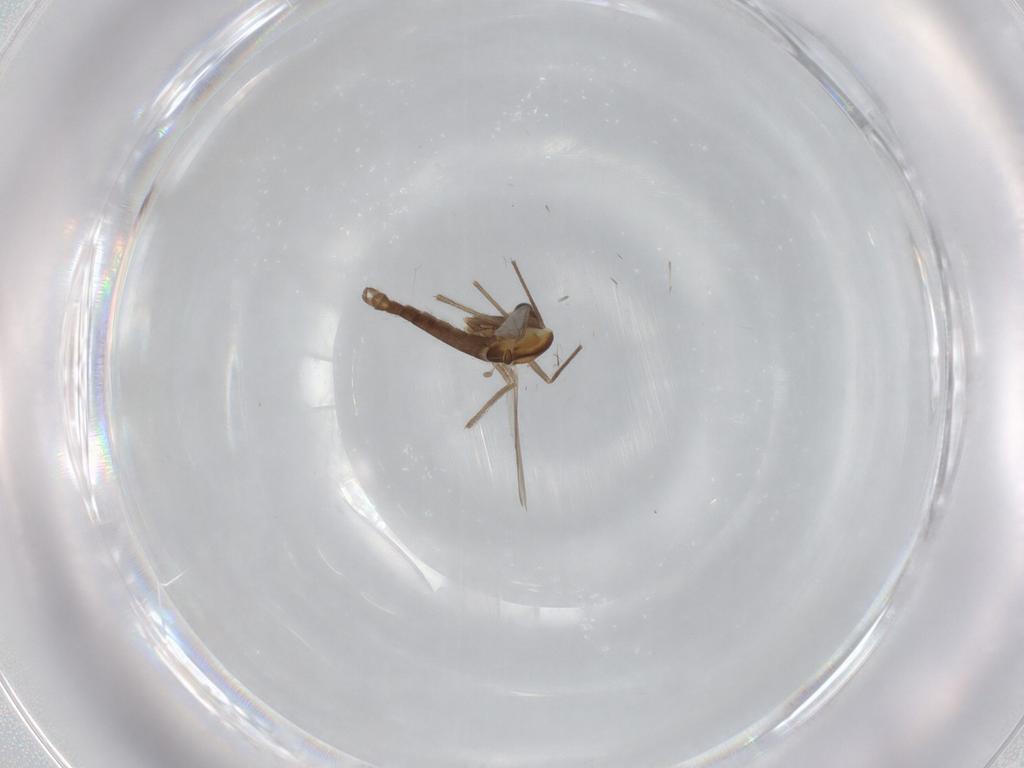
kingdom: Animalia
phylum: Arthropoda
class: Insecta
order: Diptera
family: Chironomidae
